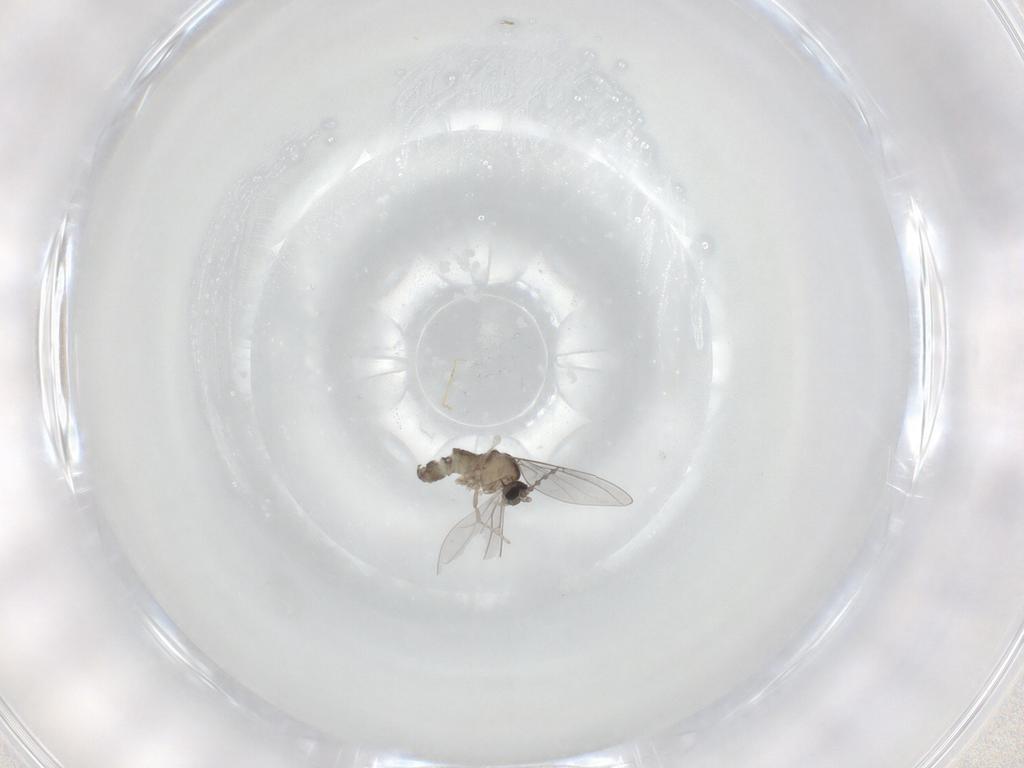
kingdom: Animalia
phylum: Arthropoda
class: Insecta
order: Diptera
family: Cecidomyiidae
